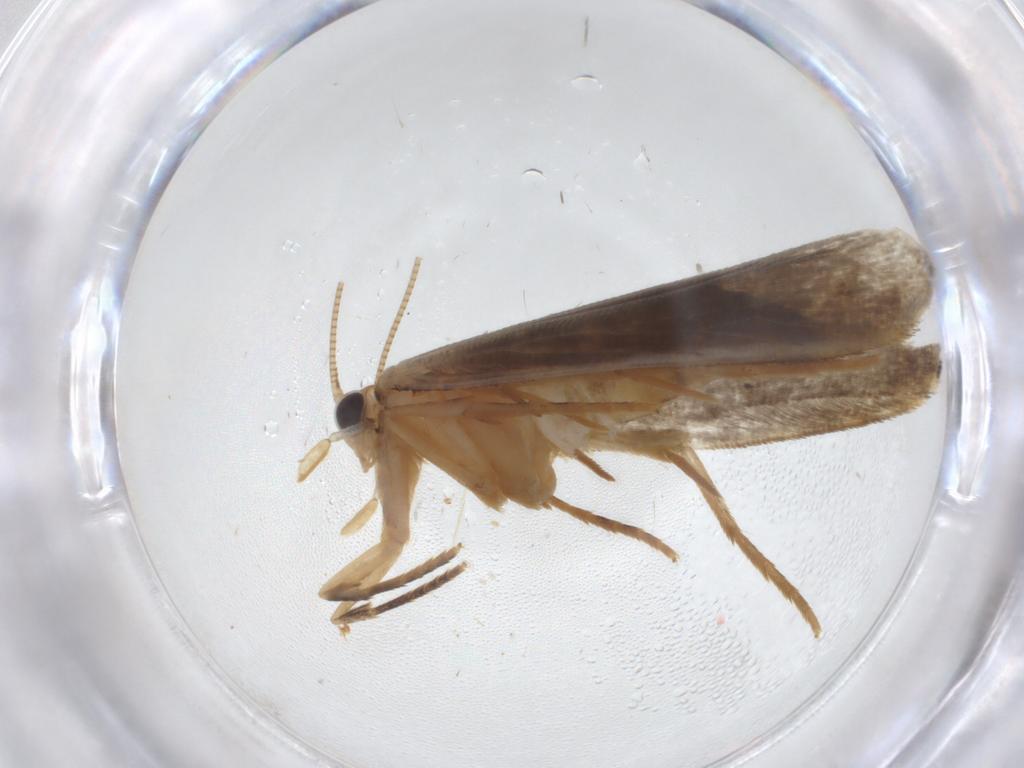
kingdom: Animalia
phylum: Arthropoda
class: Insecta
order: Lepidoptera
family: Tineidae
